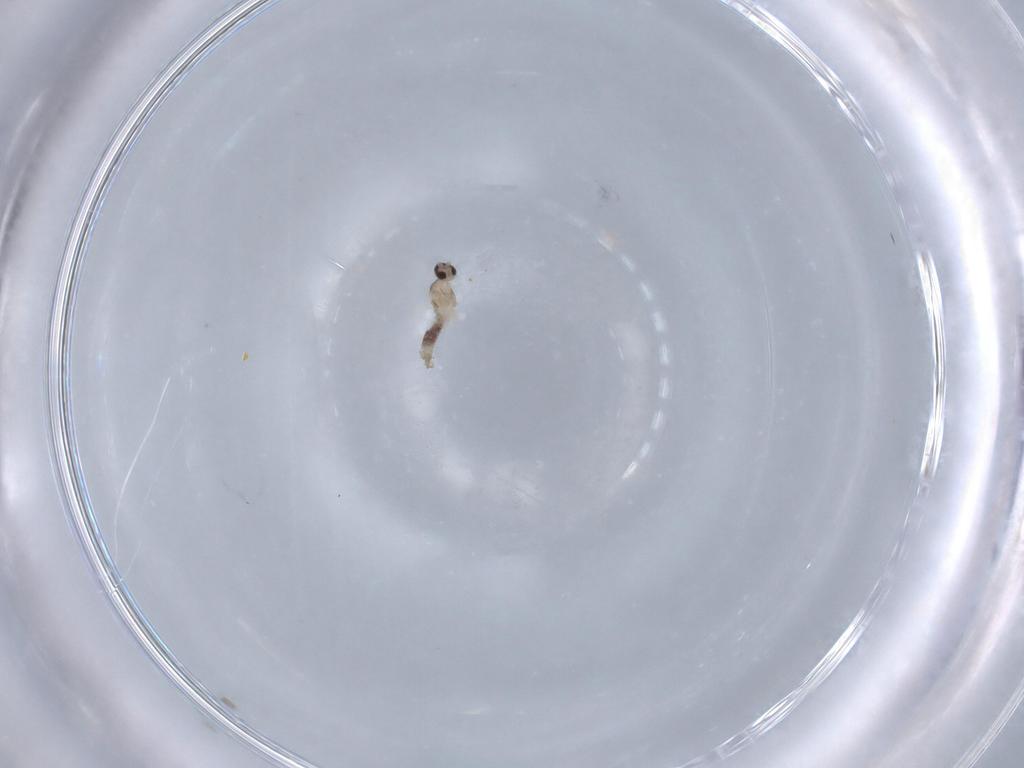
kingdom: Animalia
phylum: Arthropoda
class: Insecta
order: Diptera
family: Cecidomyiidae
